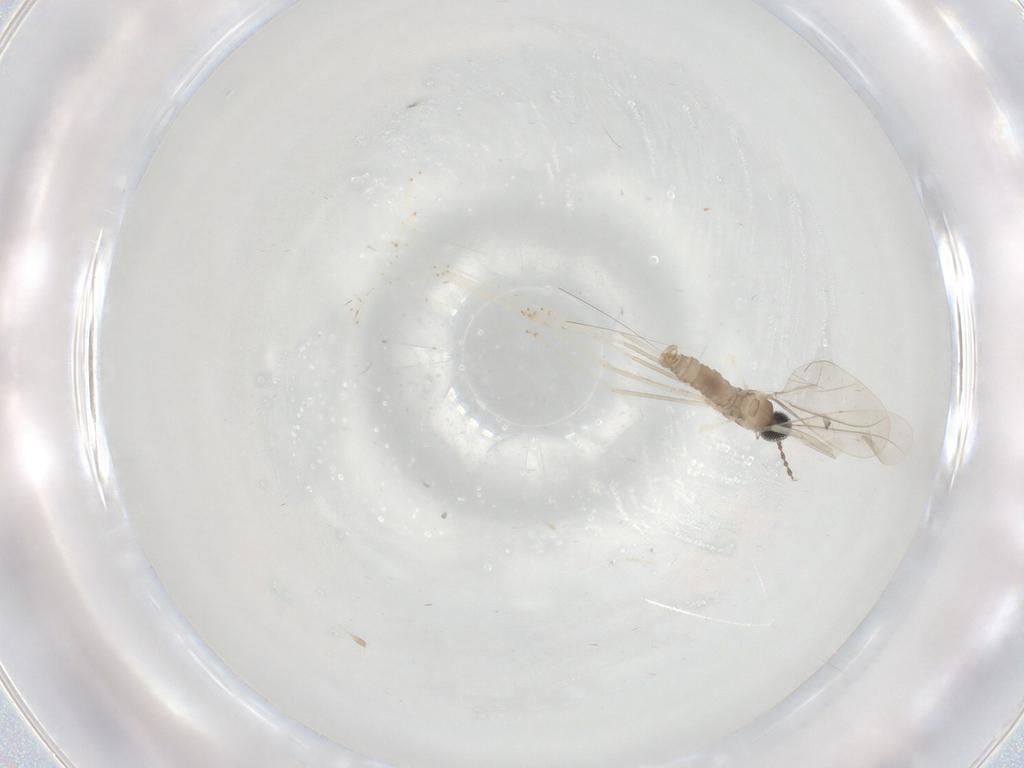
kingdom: Animalia
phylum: Arthropoda
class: Insecta
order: Diptera
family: Cecidomyiidae
